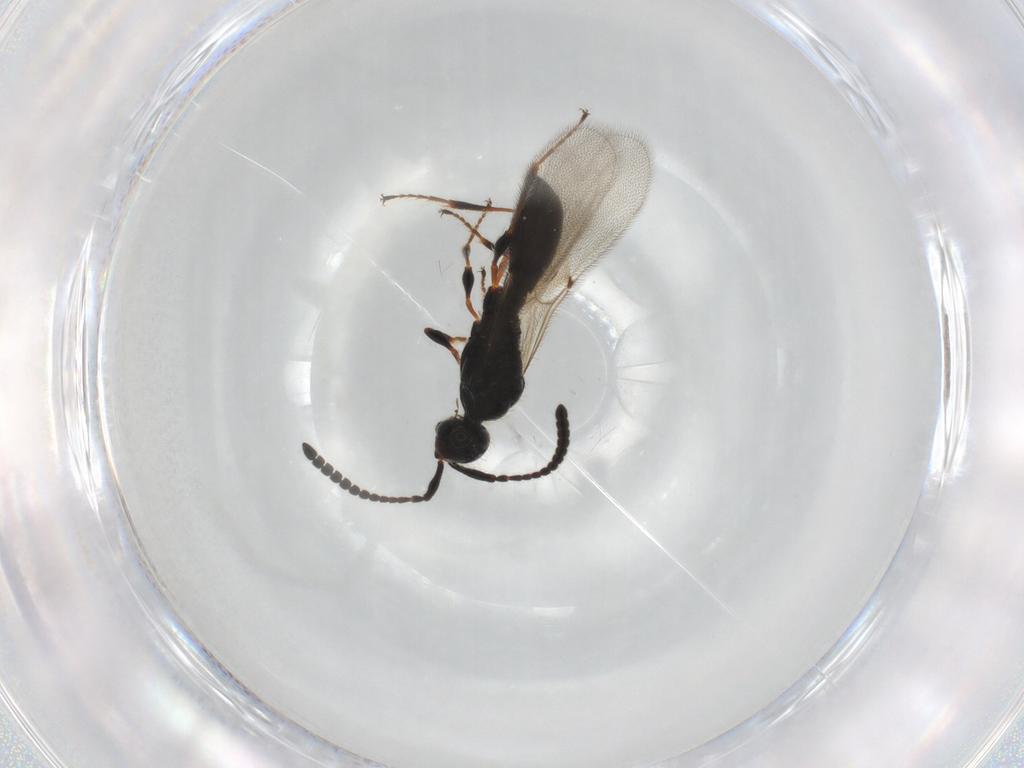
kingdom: Animalia
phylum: Arthropoda
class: Insecta
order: Hymenoptera
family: Diapriidae
